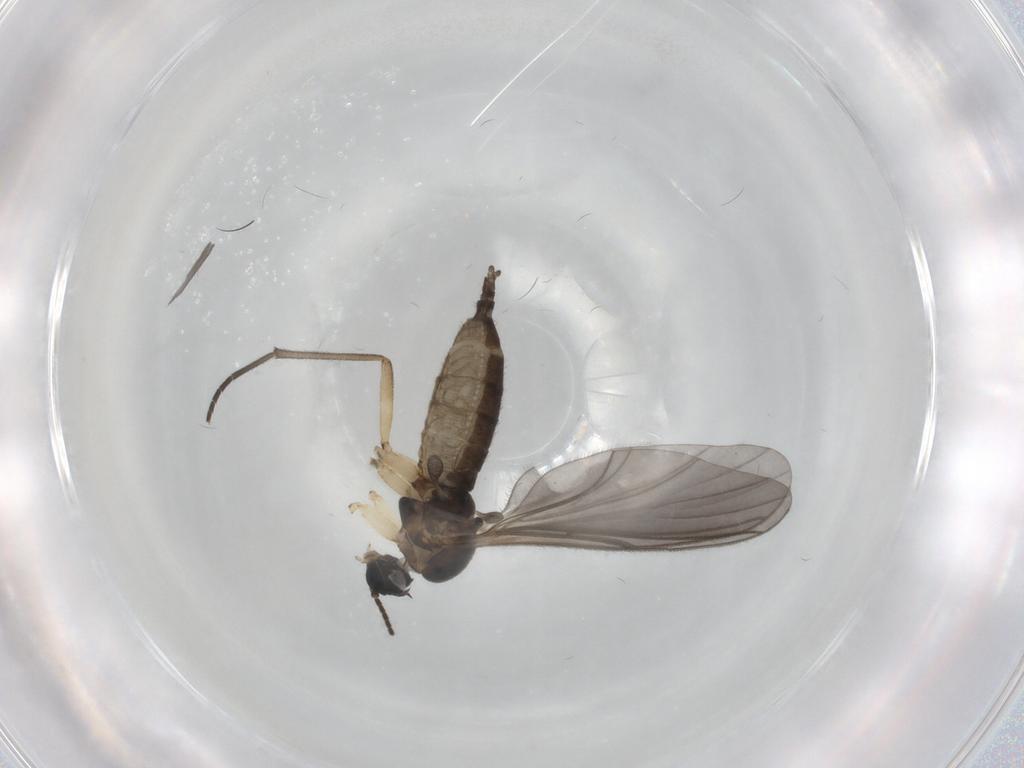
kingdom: Animalia
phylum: Arthropoda
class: Insecta
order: Diptera
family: Sciaridae
